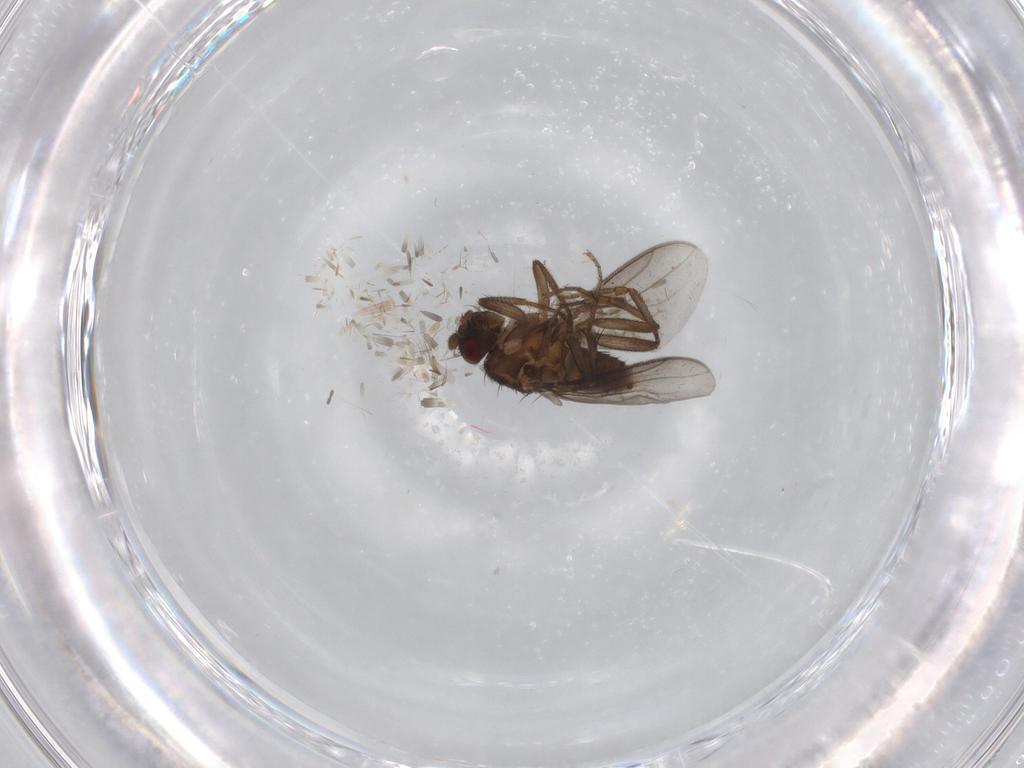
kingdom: Animalia
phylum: Arthropoda
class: Insecta
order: Diptera
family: Sphaeroceridae
